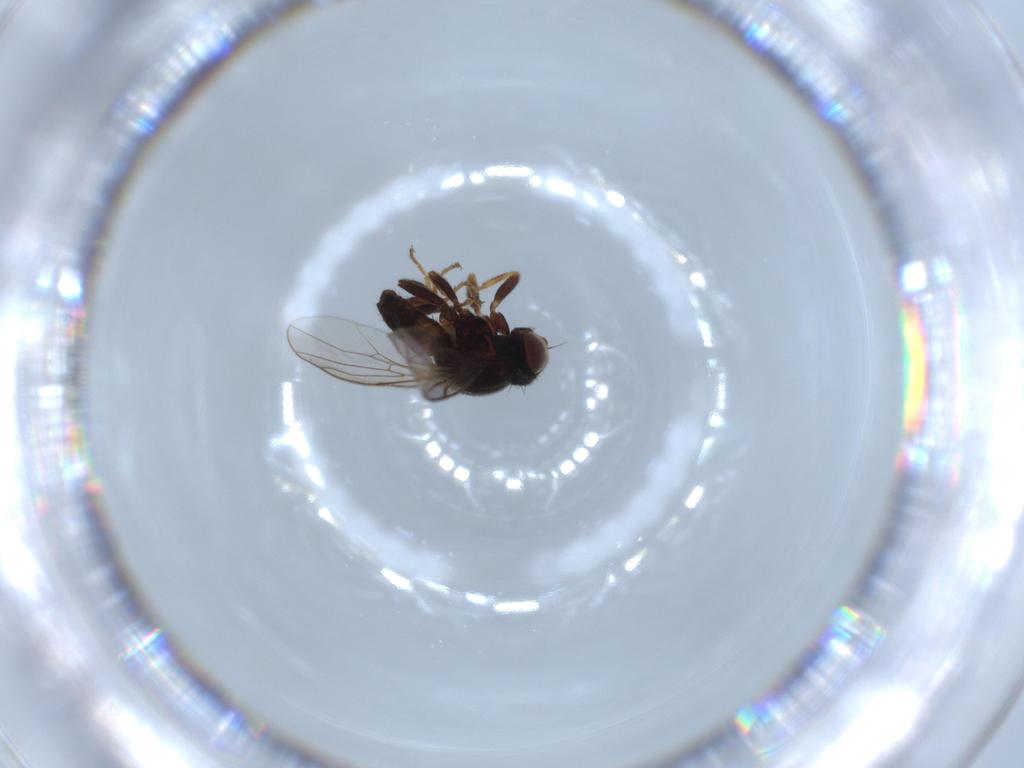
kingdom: Animalia
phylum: Arthropoda
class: Insecta
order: Diptera
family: Chloropidae
